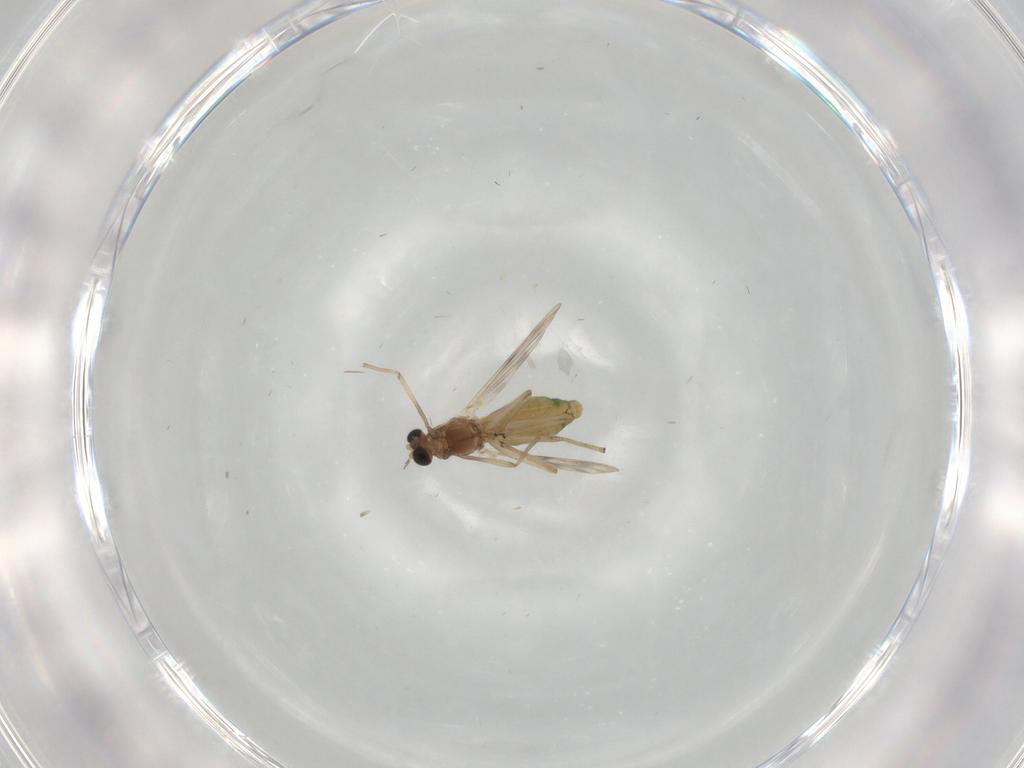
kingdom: Animalia
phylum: Arthropoda
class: Insecta
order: Diptera
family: Chironomidae
